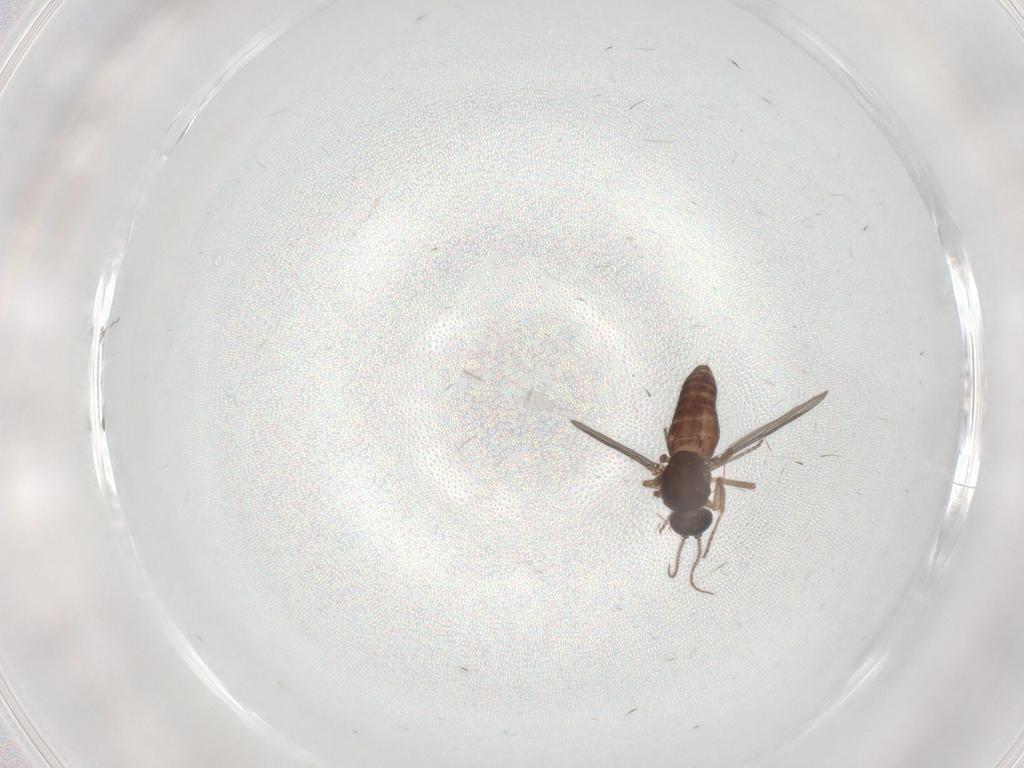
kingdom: Animalia
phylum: Arthropoda
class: Insecta
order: Diptera
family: Ceratopogonidae
